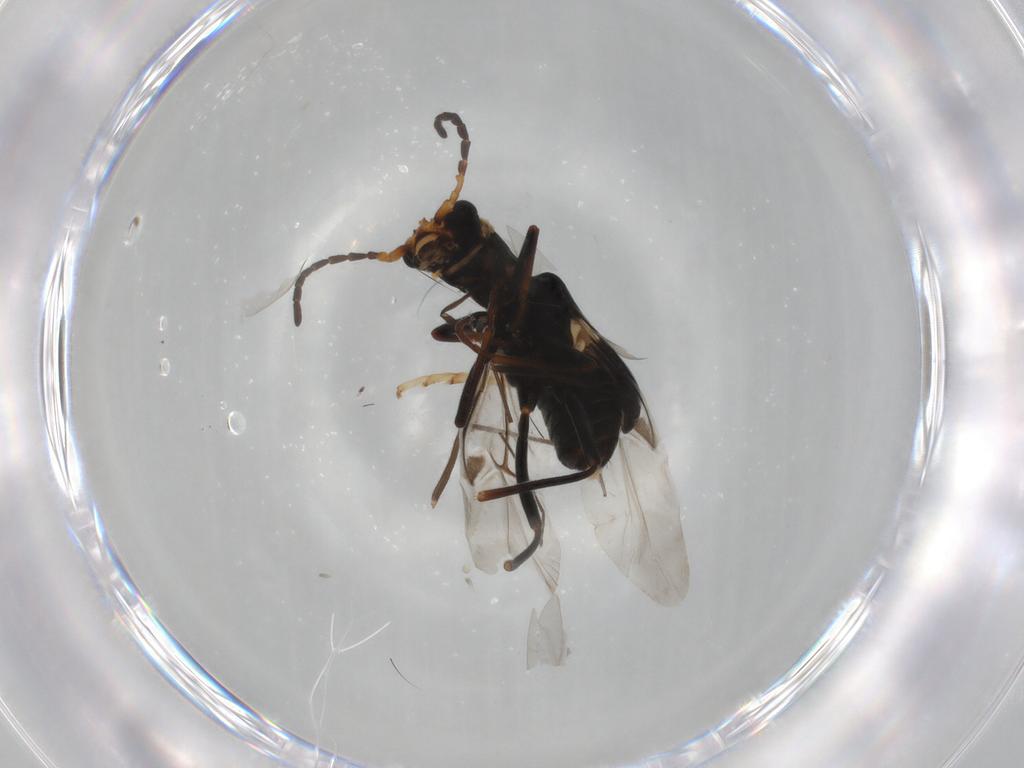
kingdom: Animalia
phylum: Arthropoda
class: Insecta
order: Coleoptera
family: Melyridae
